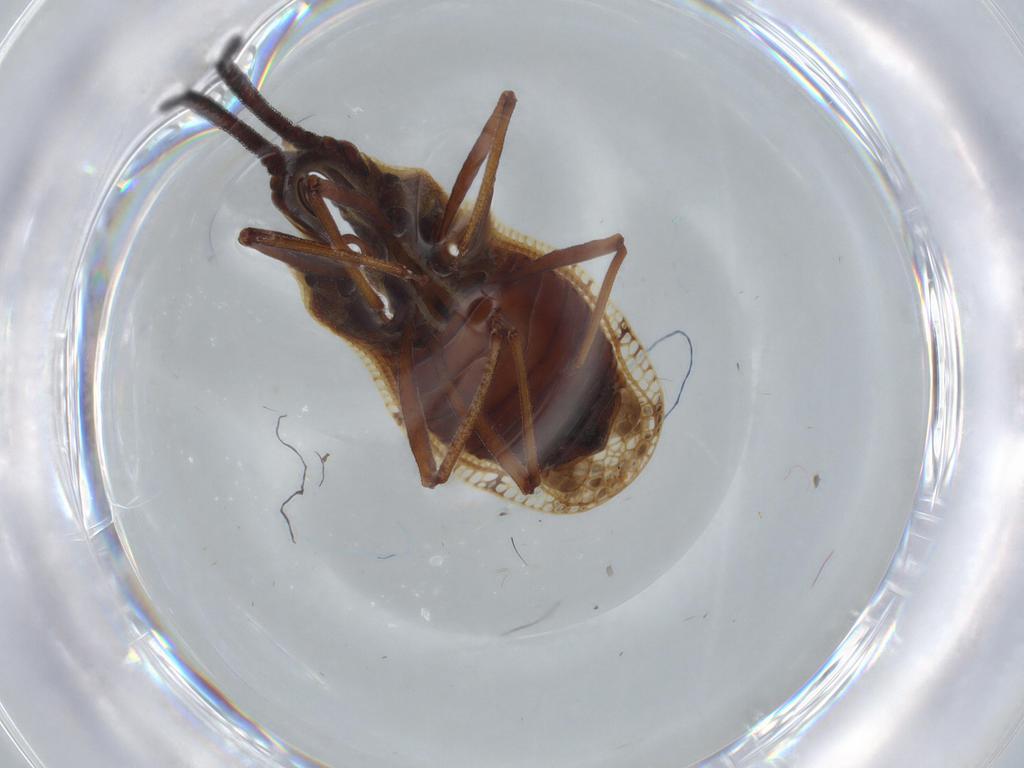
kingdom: Animalia
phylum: Arthropoda
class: Insecta
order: Hemiptera
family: Tingidae
